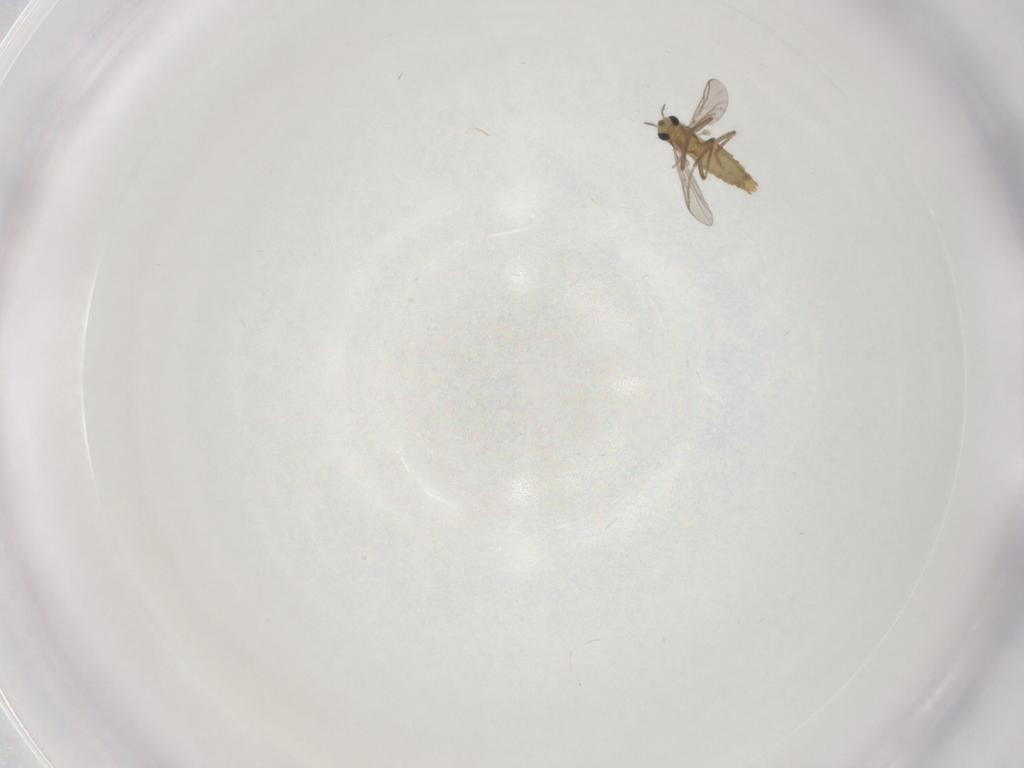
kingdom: Animalia
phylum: Arthropoda
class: Insecta
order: Diptera
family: Chironomidae
